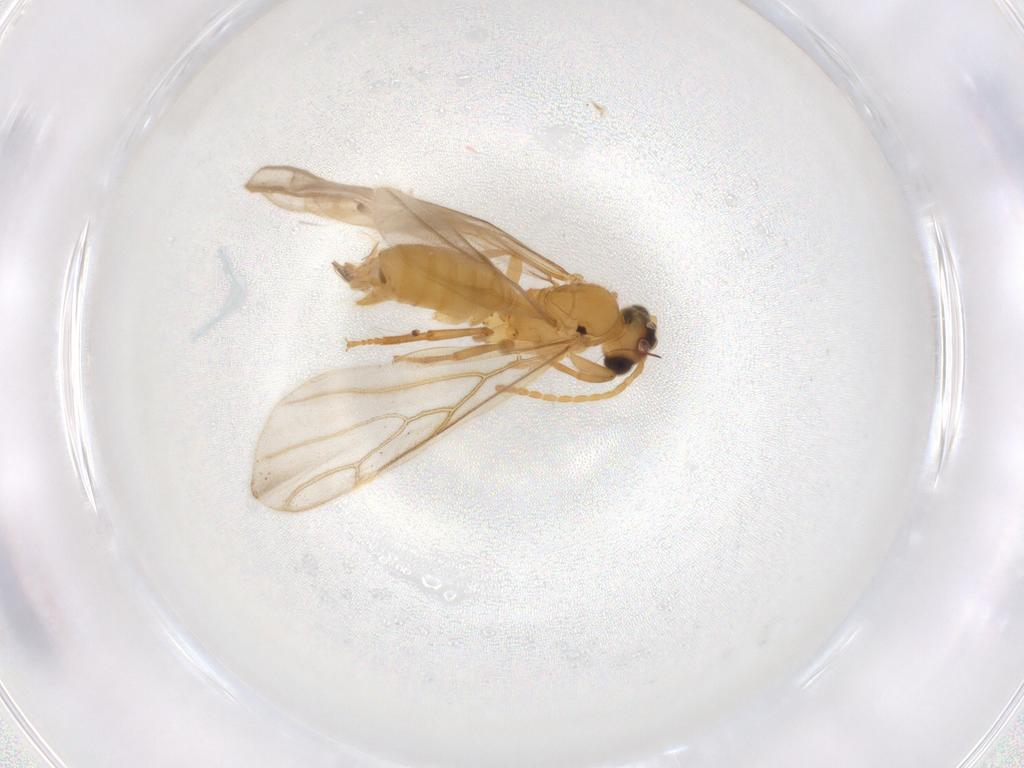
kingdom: Animalia
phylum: Arthropoda
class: Insecta
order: Hymenoptera
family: Formicidae
